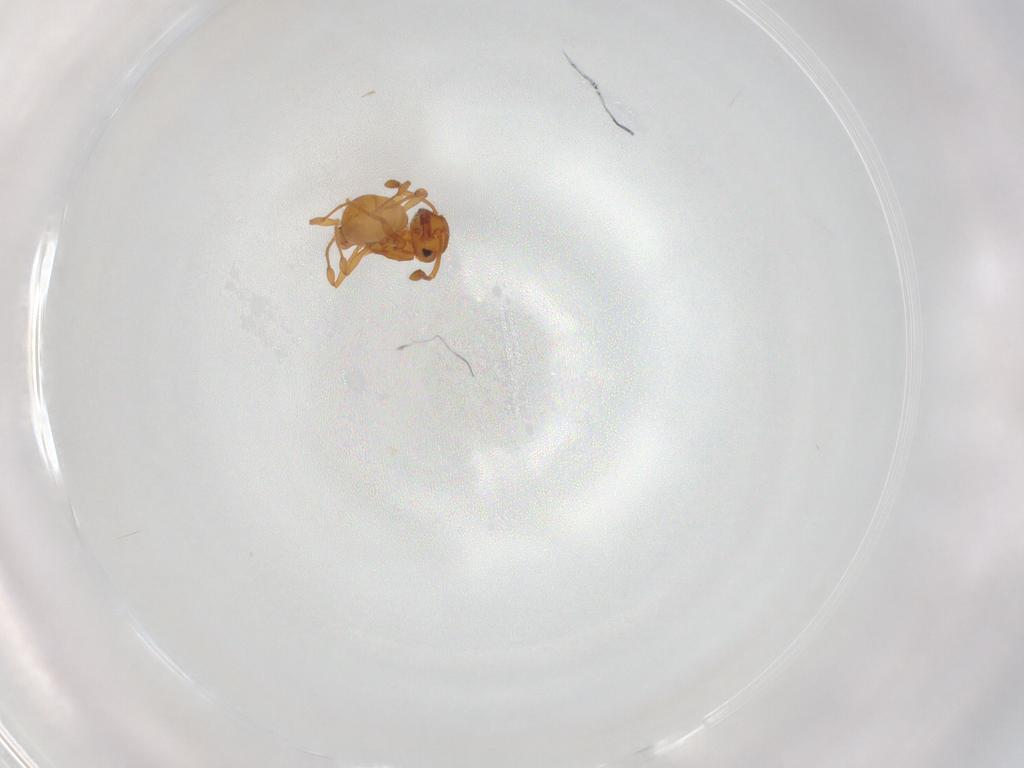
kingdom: Animalia
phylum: Arthropoda
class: Insecta
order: Hymenoptera
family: Formicidae
